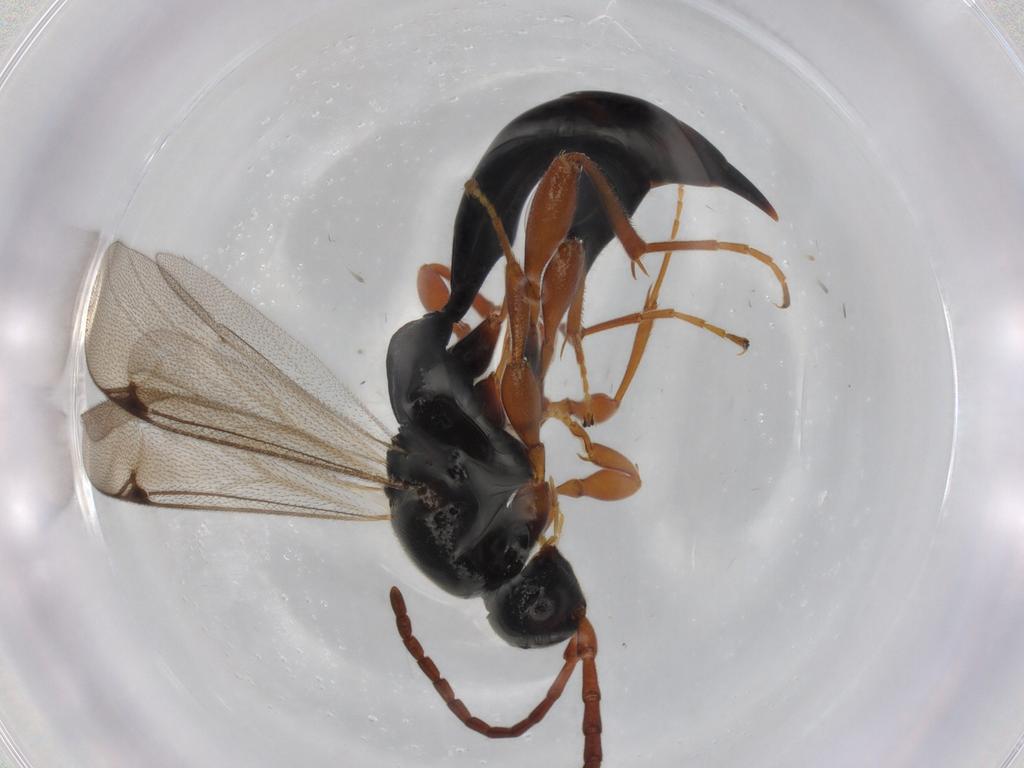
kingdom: Animalia
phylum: Arthropoda
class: Insecta
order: Hymenoptera
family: Proctotrupidae
